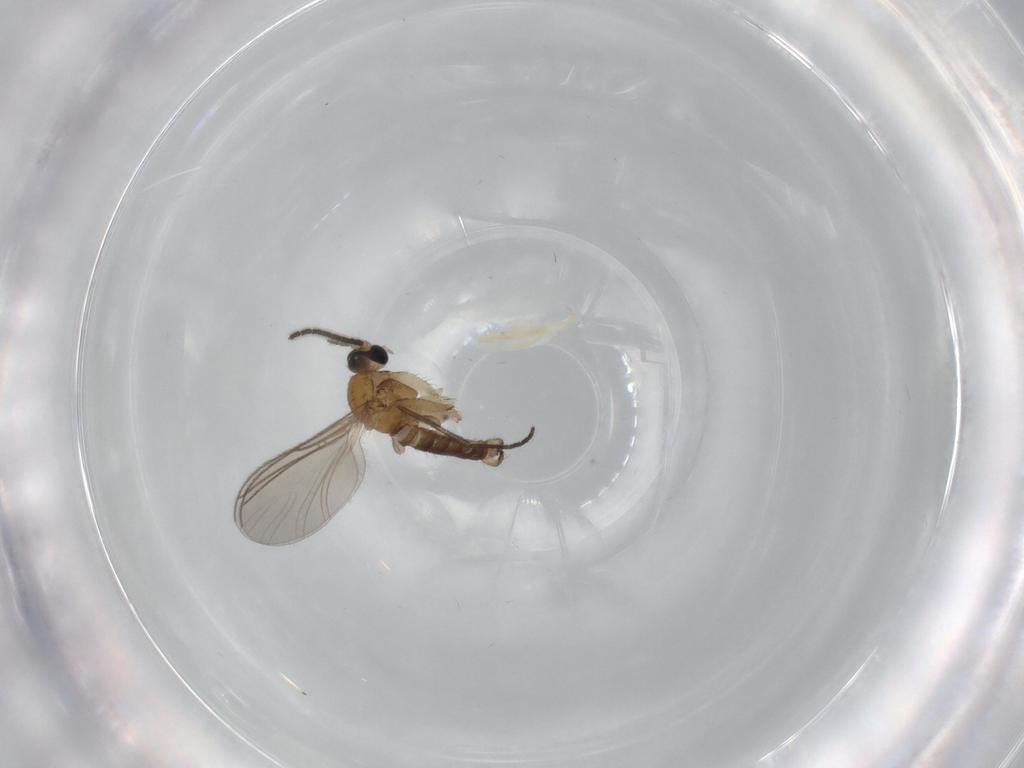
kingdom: Animalia
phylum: Arthropoda
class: Insecta
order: Diptera
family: Sciaridae
